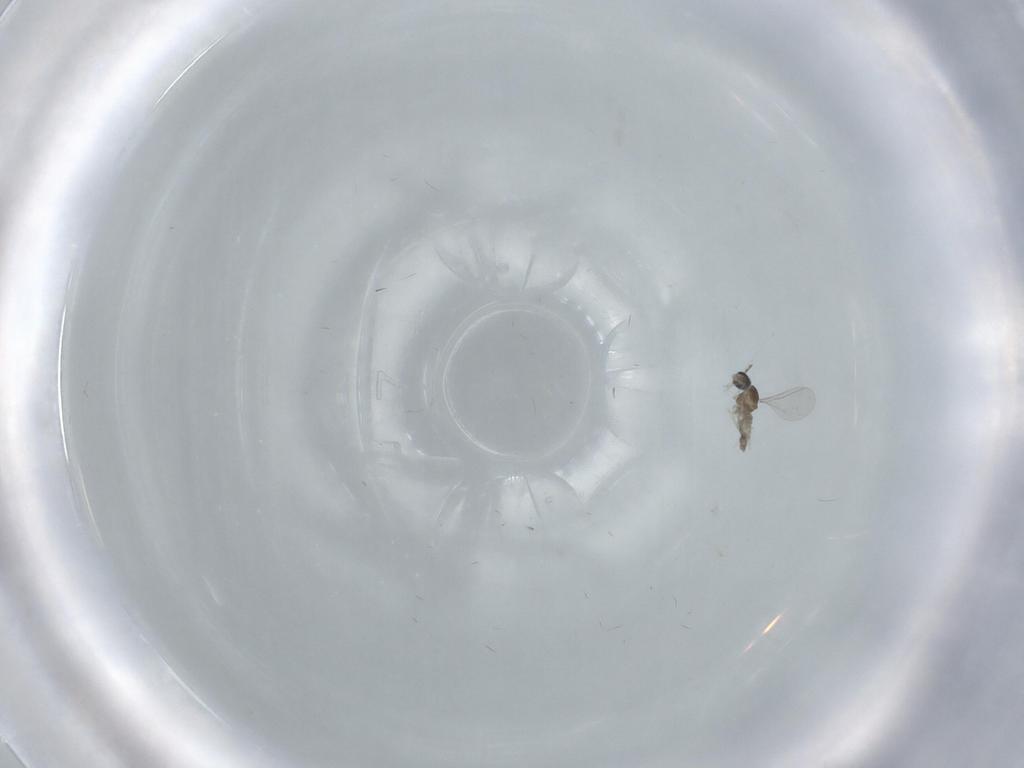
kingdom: Animalia
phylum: Arthropoda
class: Insecta
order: Diptera
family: Cecidomyiidae
